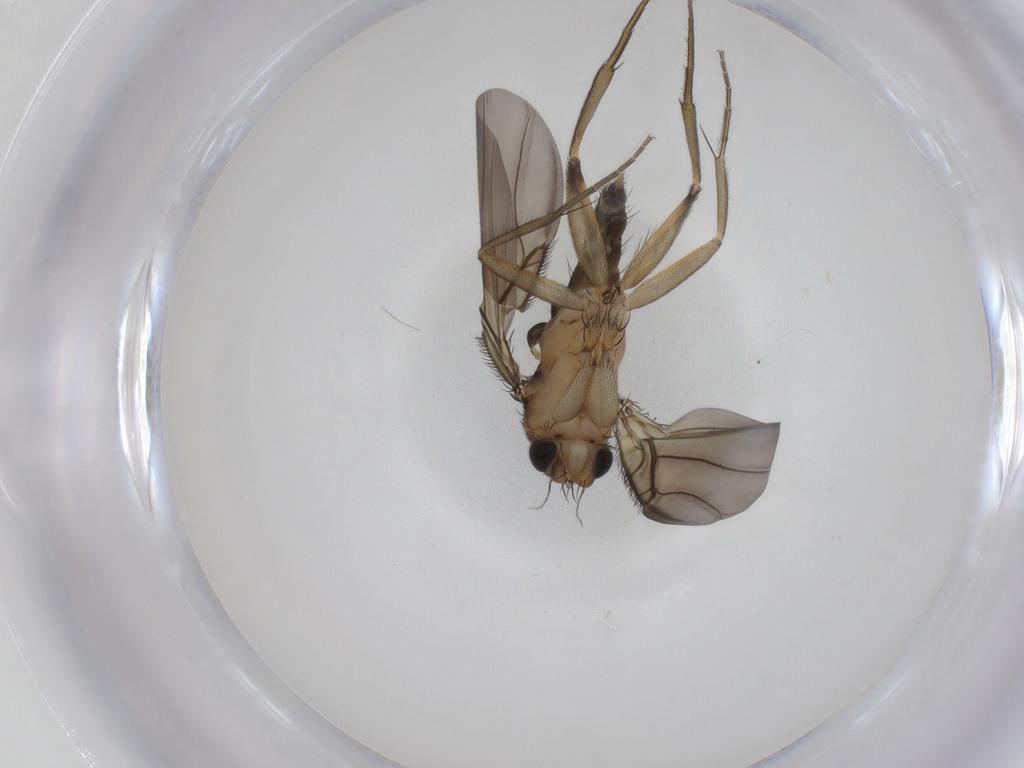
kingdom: Animalia
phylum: Arthropoda
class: Insecta
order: Diptera
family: Phoridae
